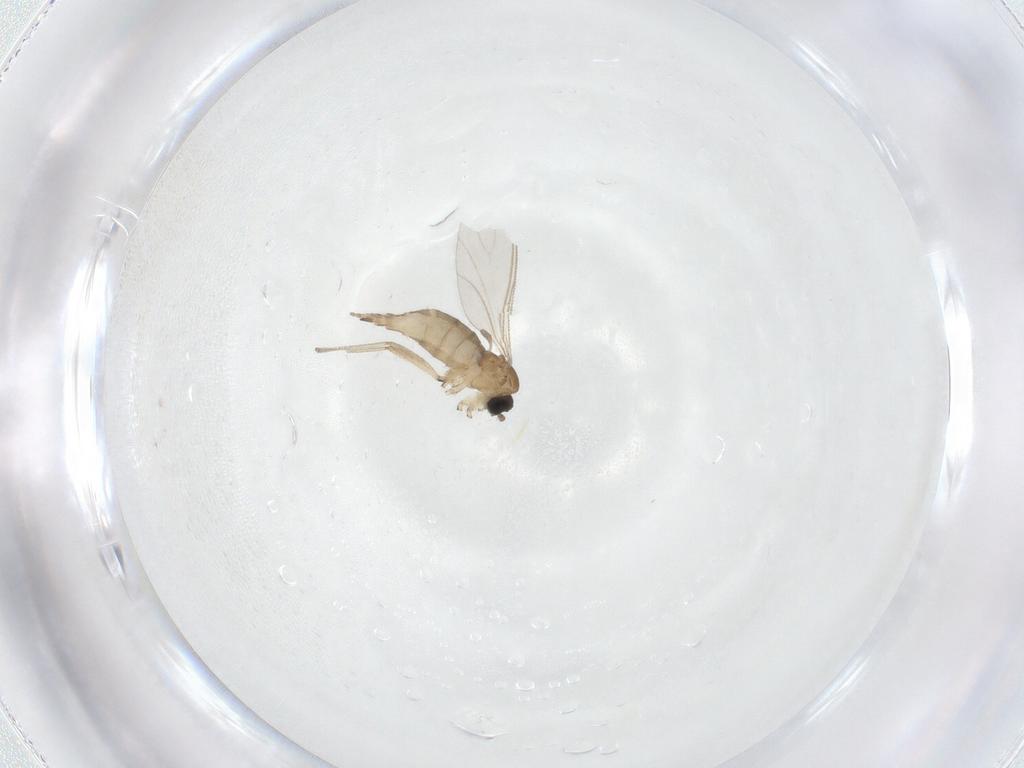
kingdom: Animalia
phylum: Arthropoda
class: Insecta
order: Diptera
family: Sciaridae
